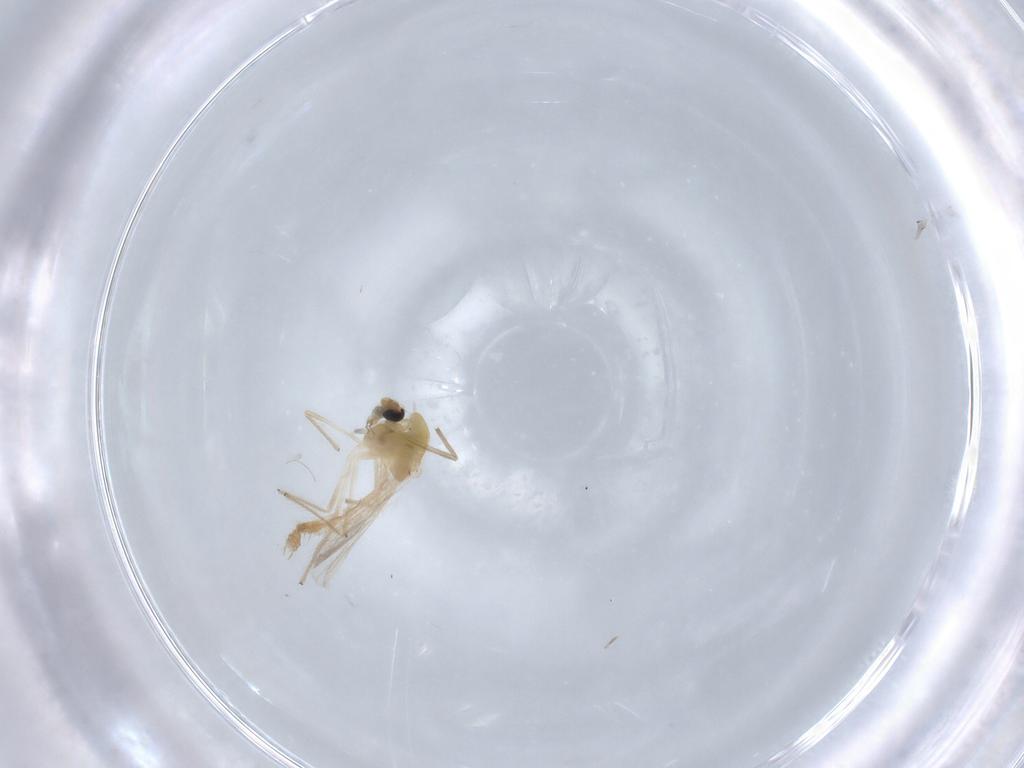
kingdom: Animalia
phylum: Arthropoda
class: Insecta
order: Diptera
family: Chironomidae
